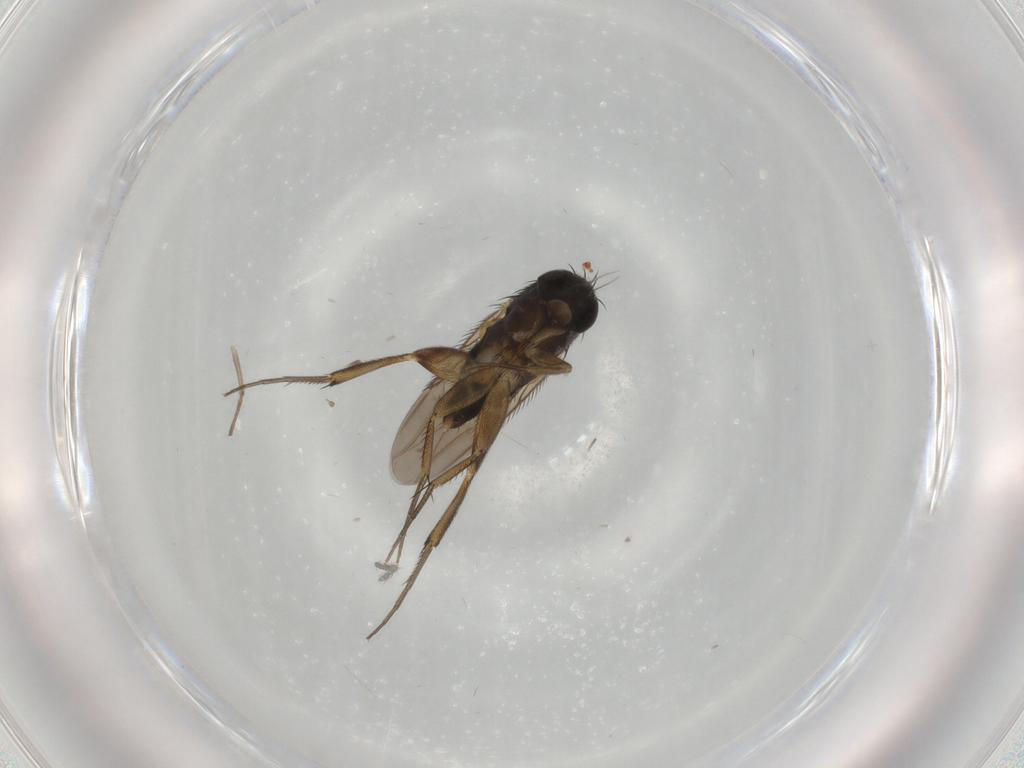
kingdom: Animalia
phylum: Arthropoda
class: Insecta
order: Diptera
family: Phoridae
